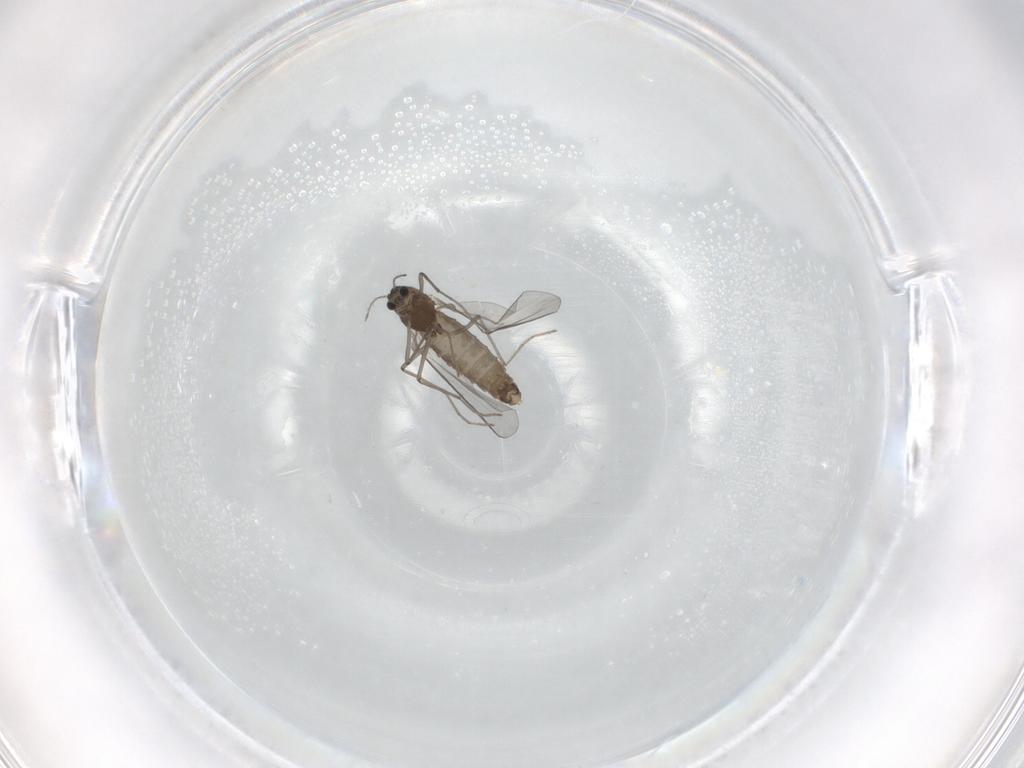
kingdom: Animalia
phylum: Arthropoda
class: Insecta
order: Diptera
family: Chironomidae
